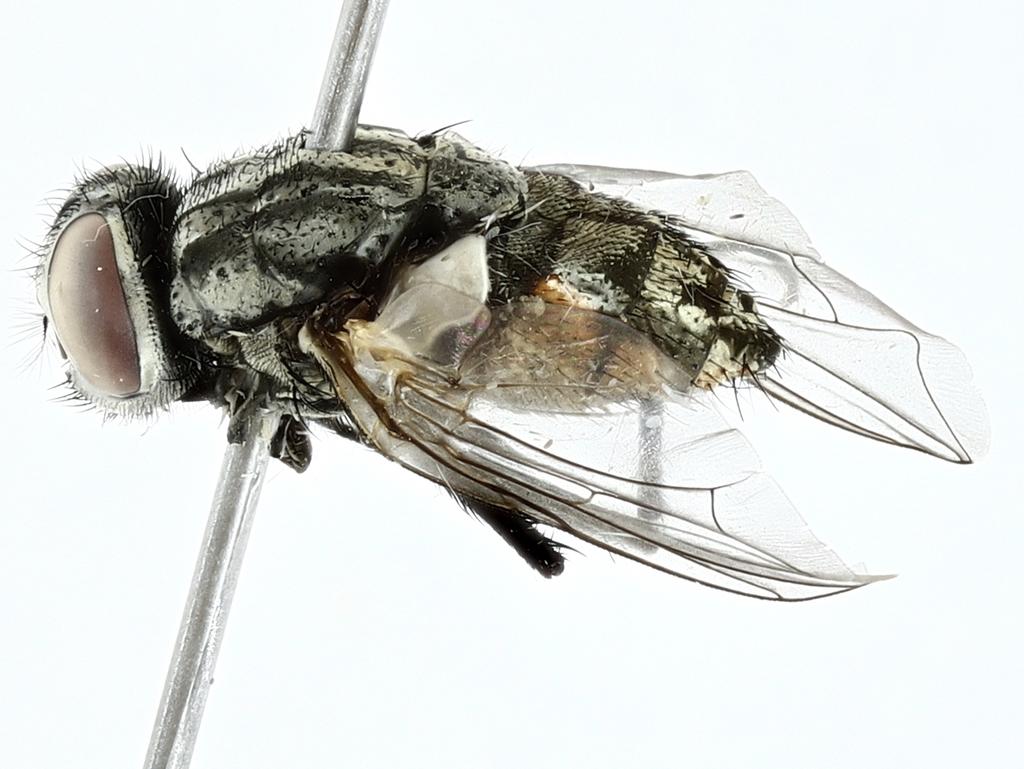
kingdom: Animalia
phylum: Arthropoda
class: Insecta
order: Diptera
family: Muscidae
